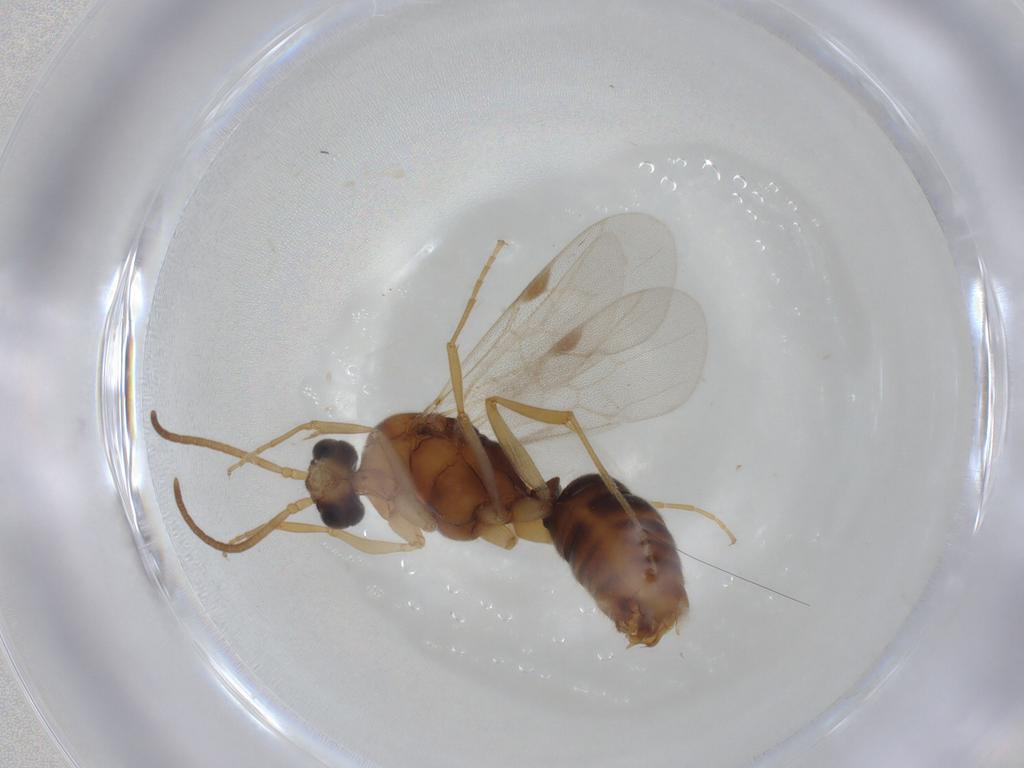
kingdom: Animalia
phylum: Arthropoda
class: Insecta
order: Hymenoptera
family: Formicidae
